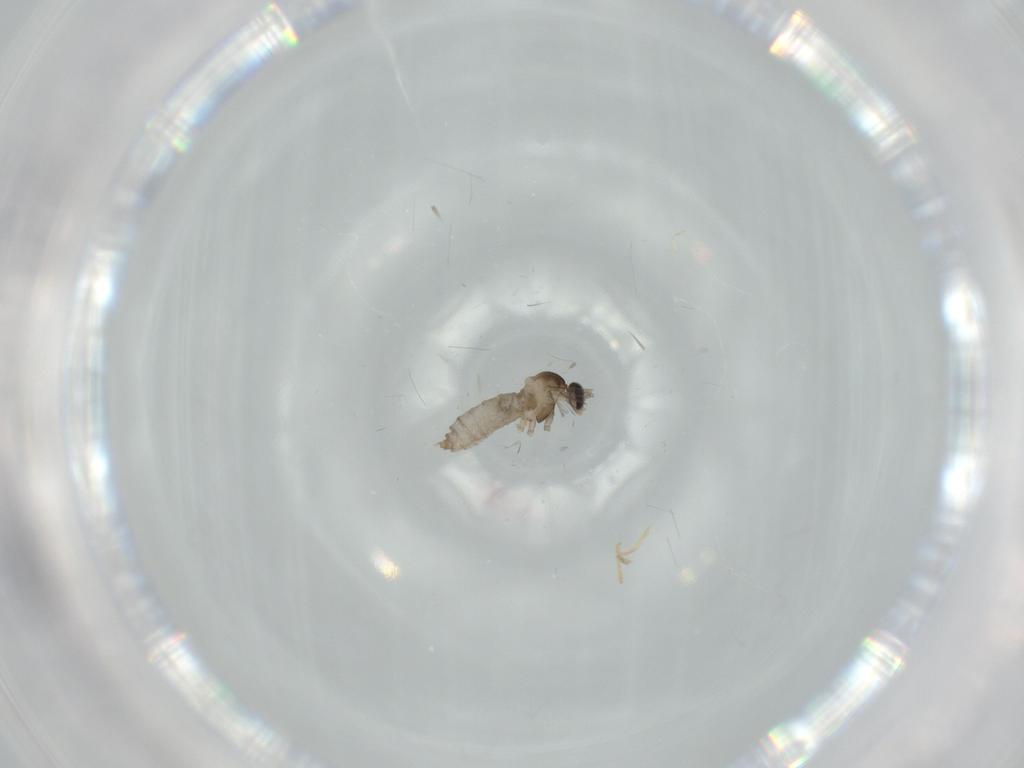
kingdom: Animalia
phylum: Arthropoda
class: Insecta
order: Diptera
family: Cecidomyiidae
